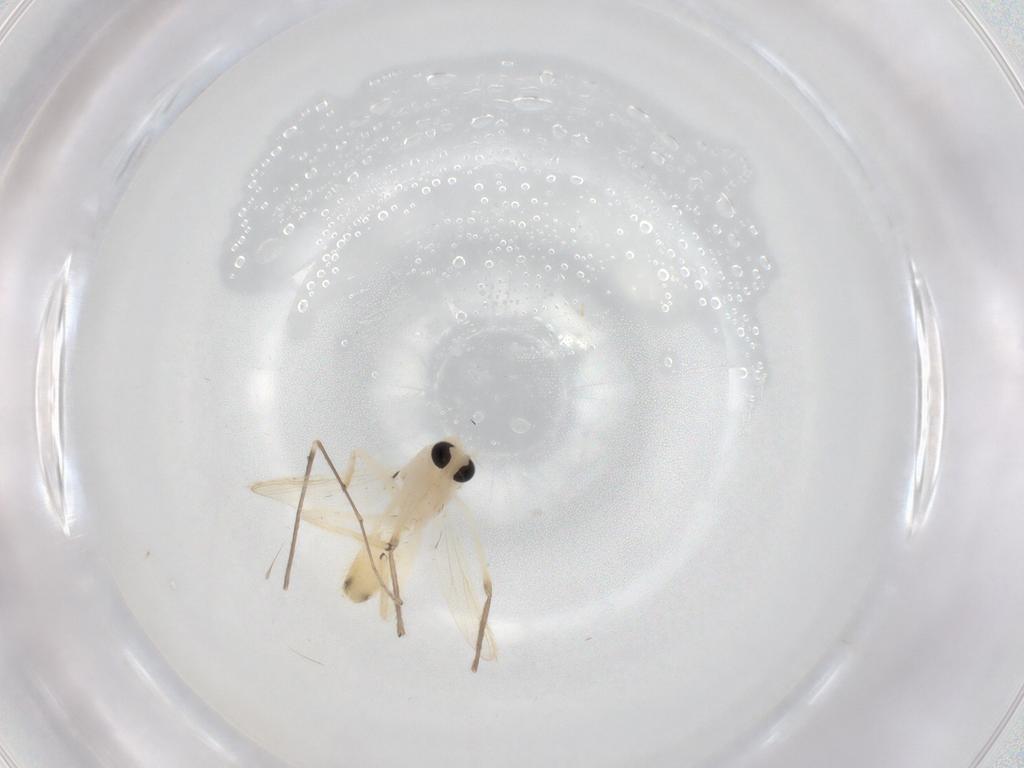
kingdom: Animalia
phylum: Arthropoda
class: Insecta
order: Diptera
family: Limoniidae
